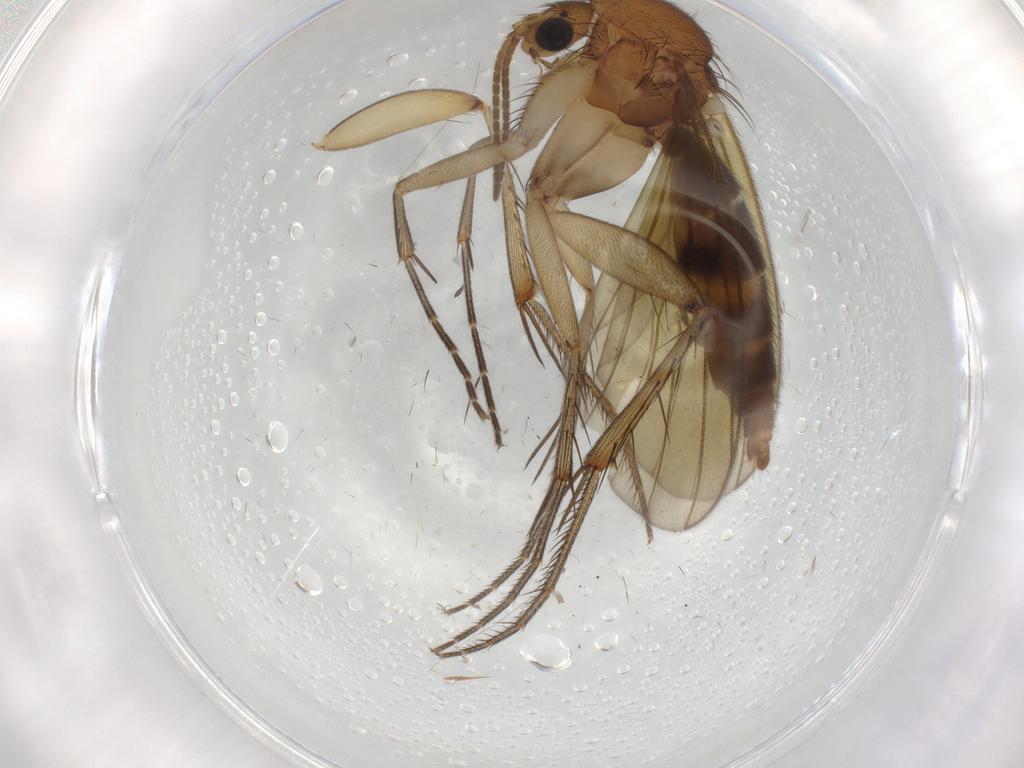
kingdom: Animalia
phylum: Arthropoda
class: Insecta
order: Diptera
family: Mycetophilidae
